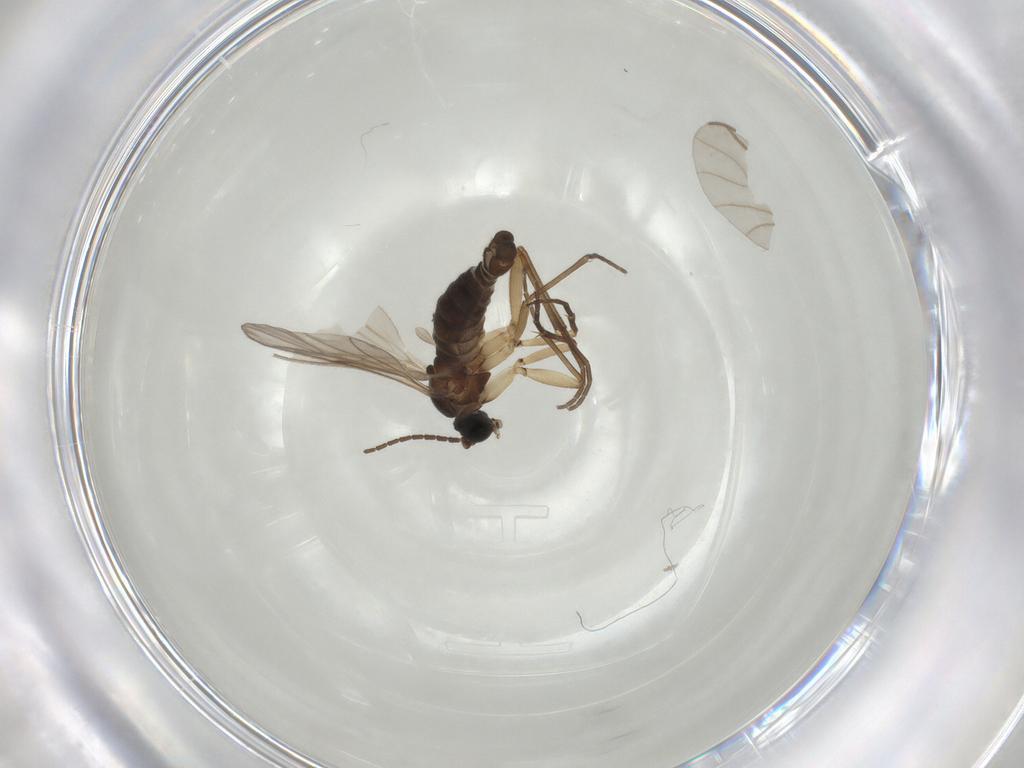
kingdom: Animalia
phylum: Arthropoda
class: Insecta
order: Diptera
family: Sciaridae
